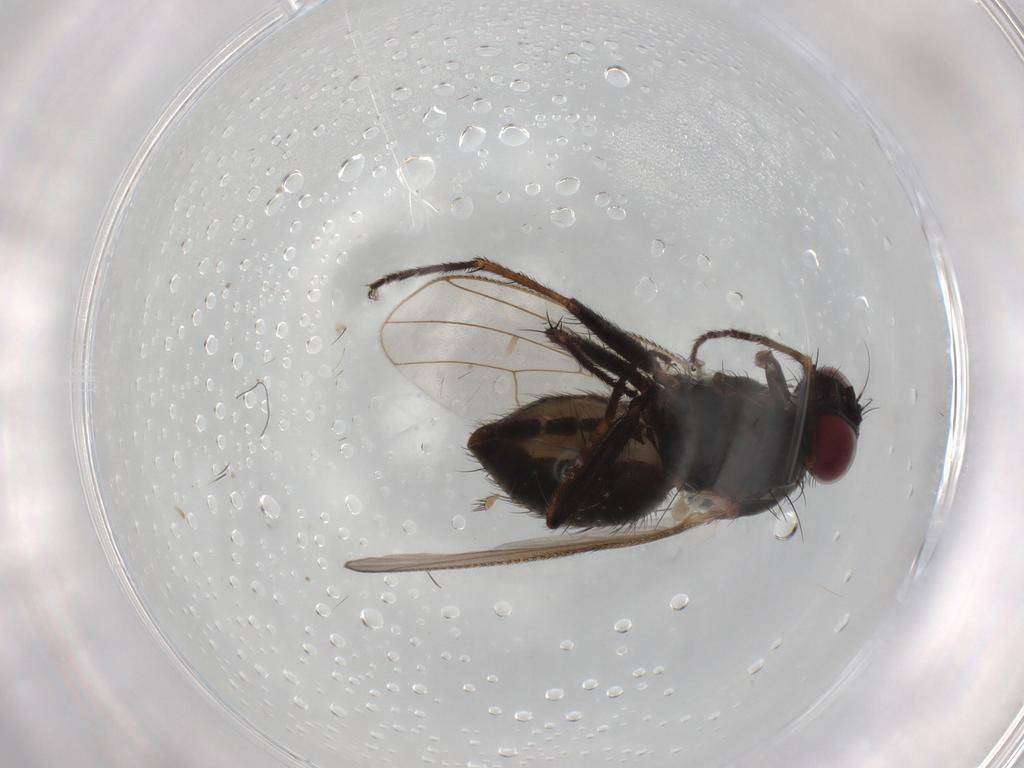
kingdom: Animalia
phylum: Arthropoda
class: Insecta
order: Diptera
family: Muscidae
